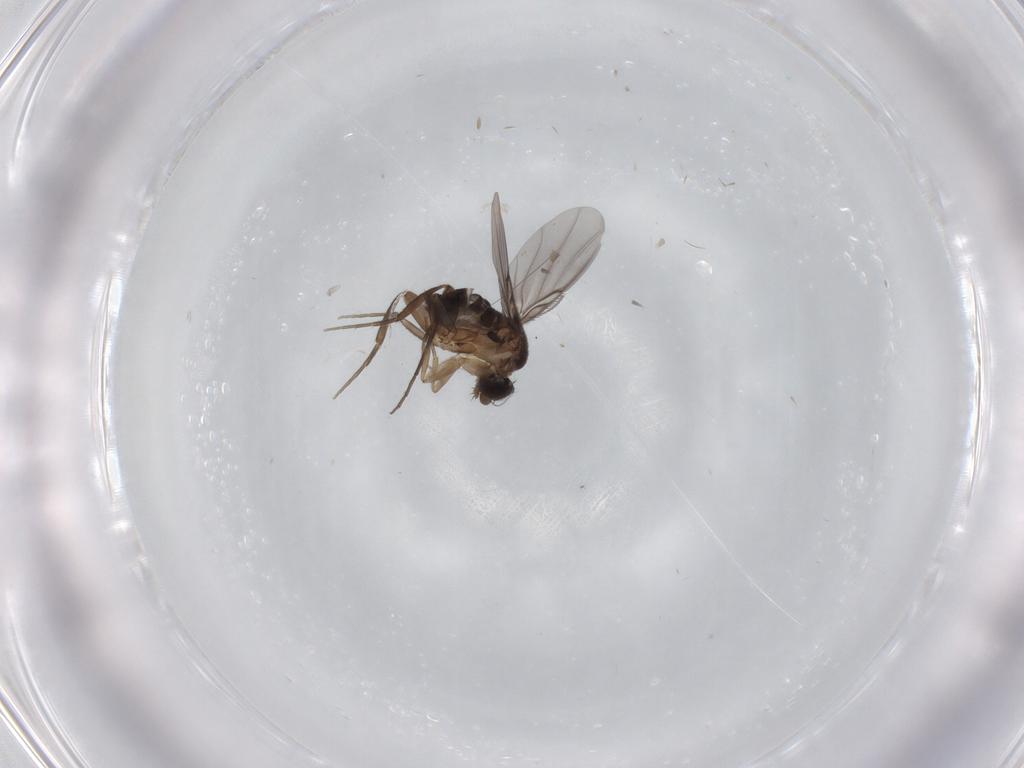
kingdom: Animalia
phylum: Arthropoda
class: Insecta
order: Diptera
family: Phoridae
